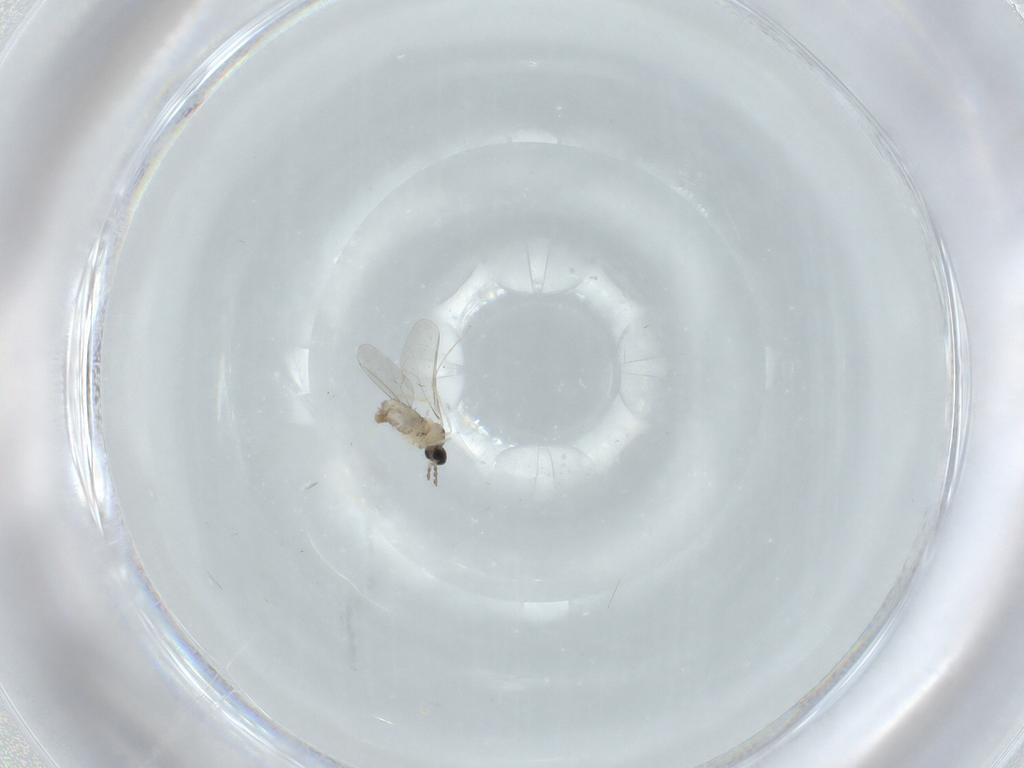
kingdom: Animalia
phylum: Arthropoda
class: Insecta
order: Diptera
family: Cecidomyiidae
